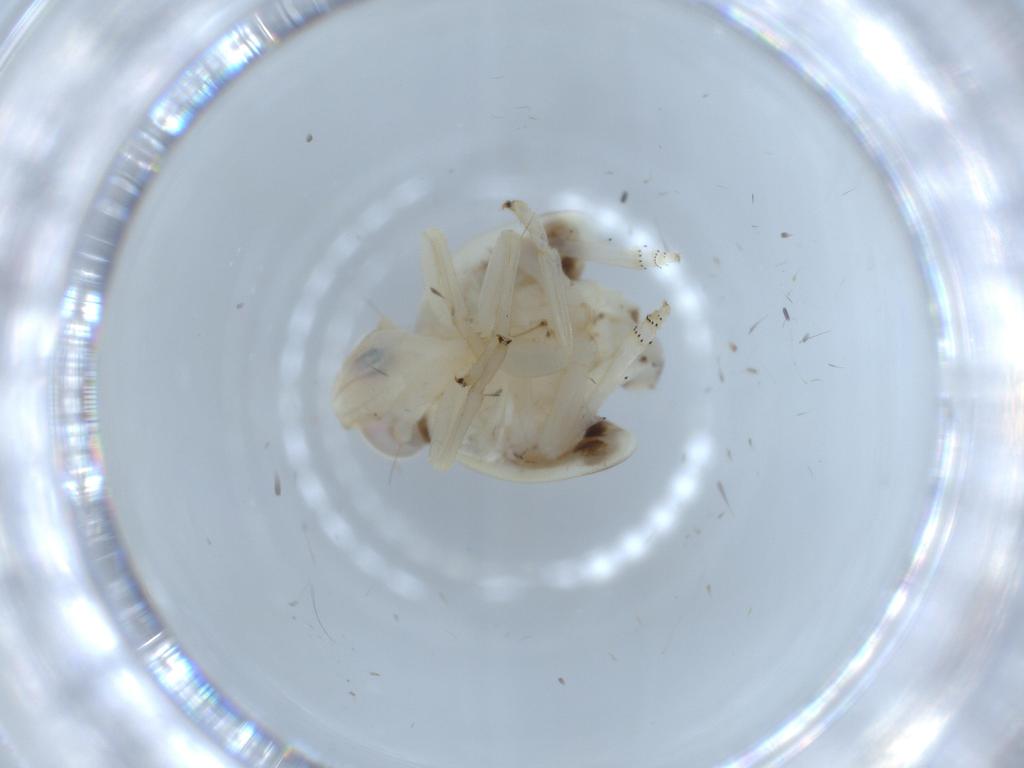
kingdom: Animalia
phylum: Arthropoda
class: Insecta
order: Hemiptera
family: Nogodinidae
